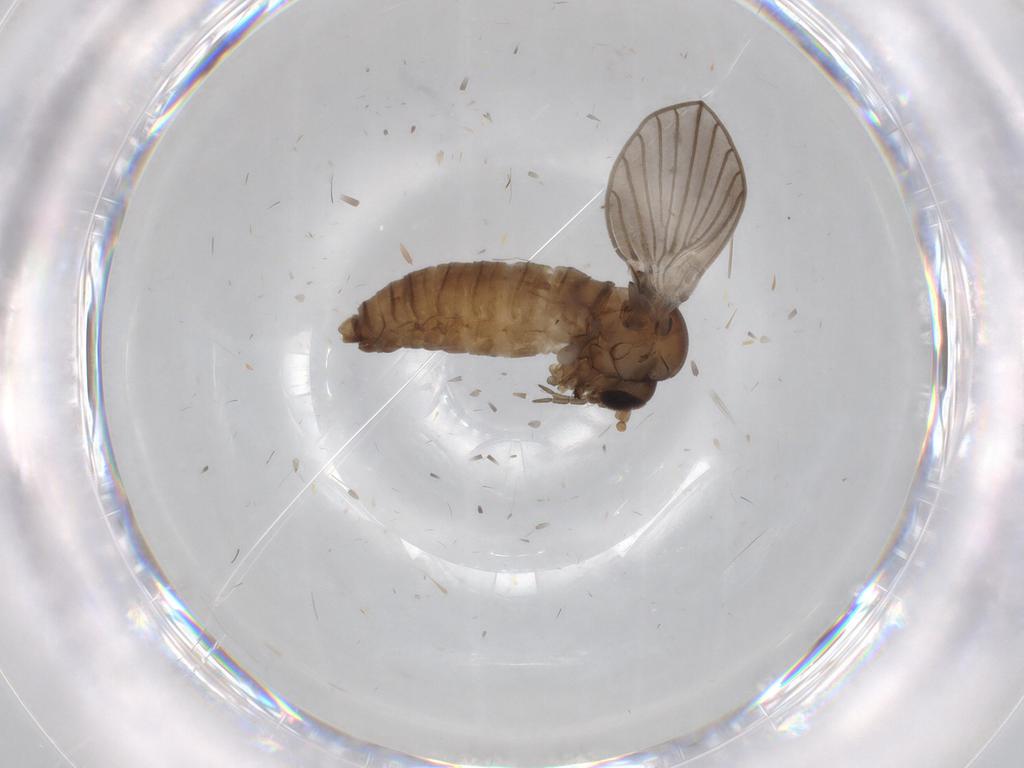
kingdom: Animalia
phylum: Arthropoda
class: Insecta
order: Diptera
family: Psychodidae
